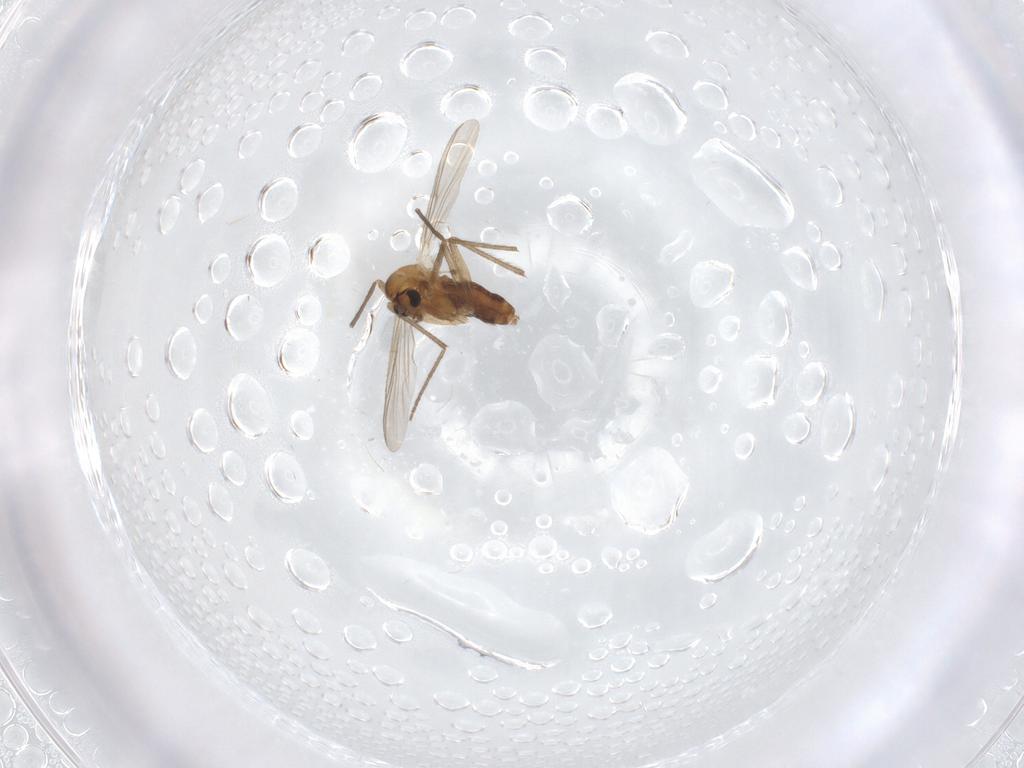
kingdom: Animalia
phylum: Arthropoda
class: Insecta
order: Diptera
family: Chironomidae
